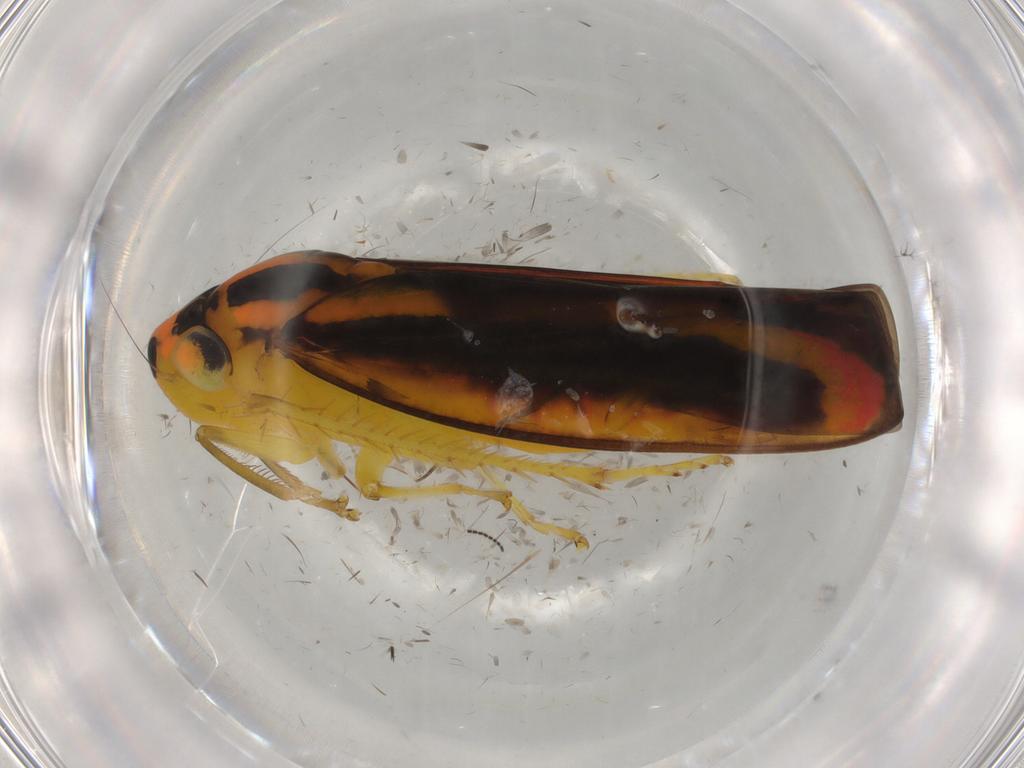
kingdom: Animalia
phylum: Arthropoda
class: Insecta
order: Hemiptera
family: Cicadellidae
